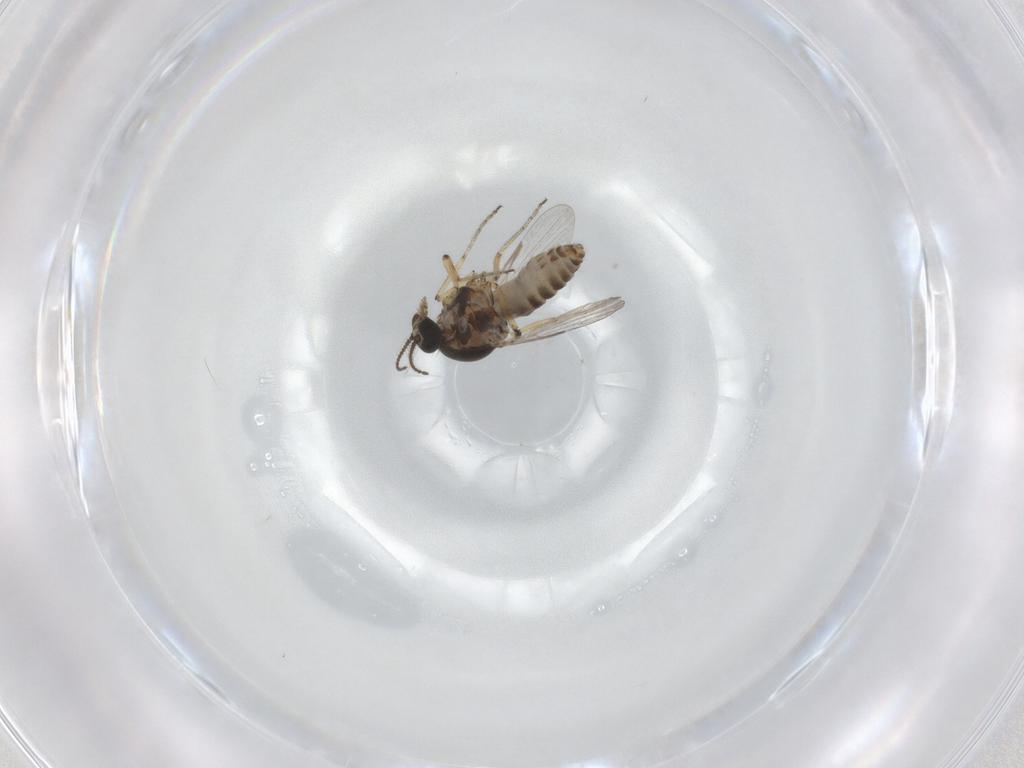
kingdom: Animalia
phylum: Arthropoda
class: Insecta
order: Diptera
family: Ceratopogonidae
